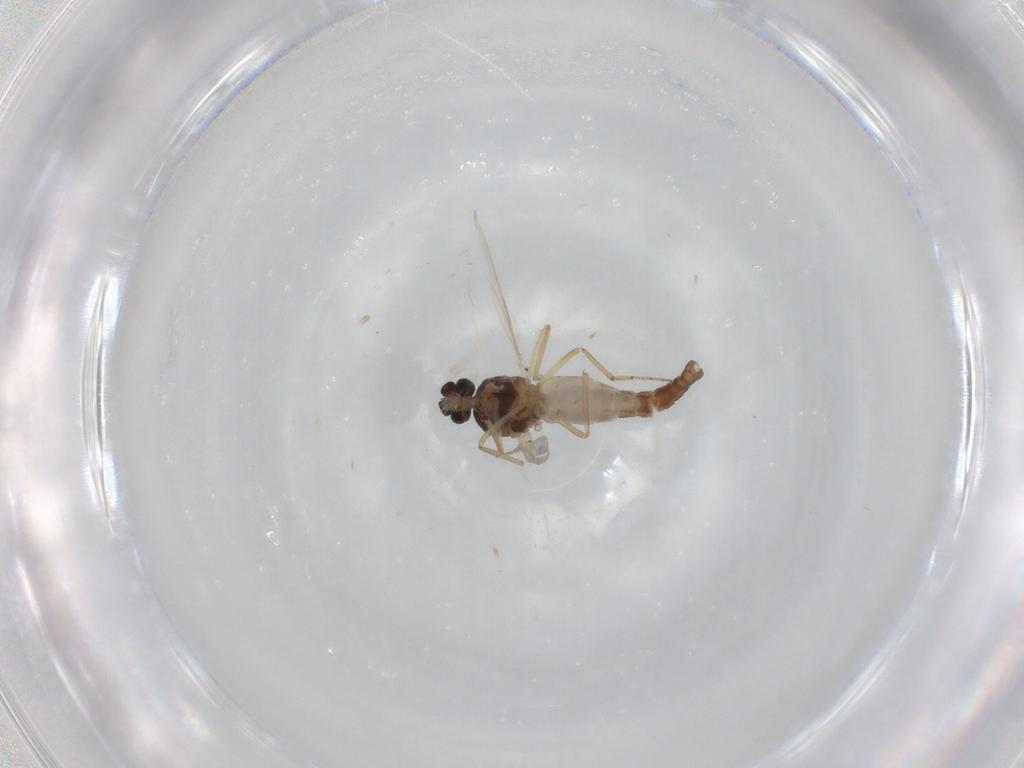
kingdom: Animalia
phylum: Arthropoda
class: Insecta
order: Diptera
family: Ceratopogonidae
